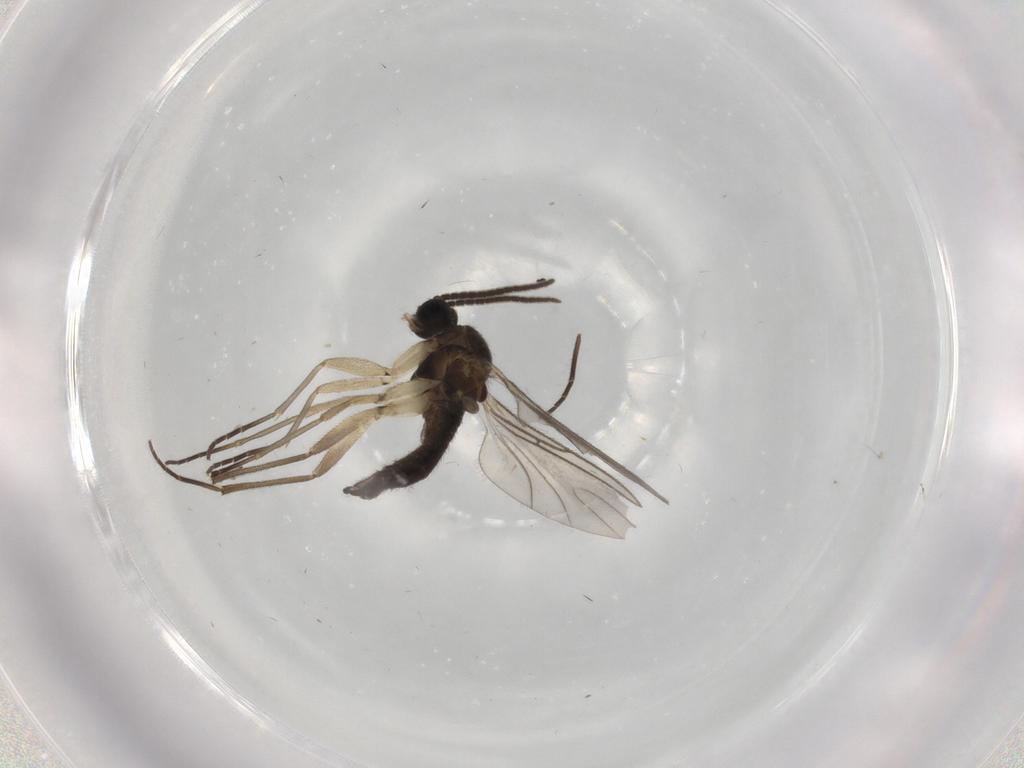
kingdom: Animalia
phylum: Arthropoda
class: Insecta
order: Diptera
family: Sciaridae
